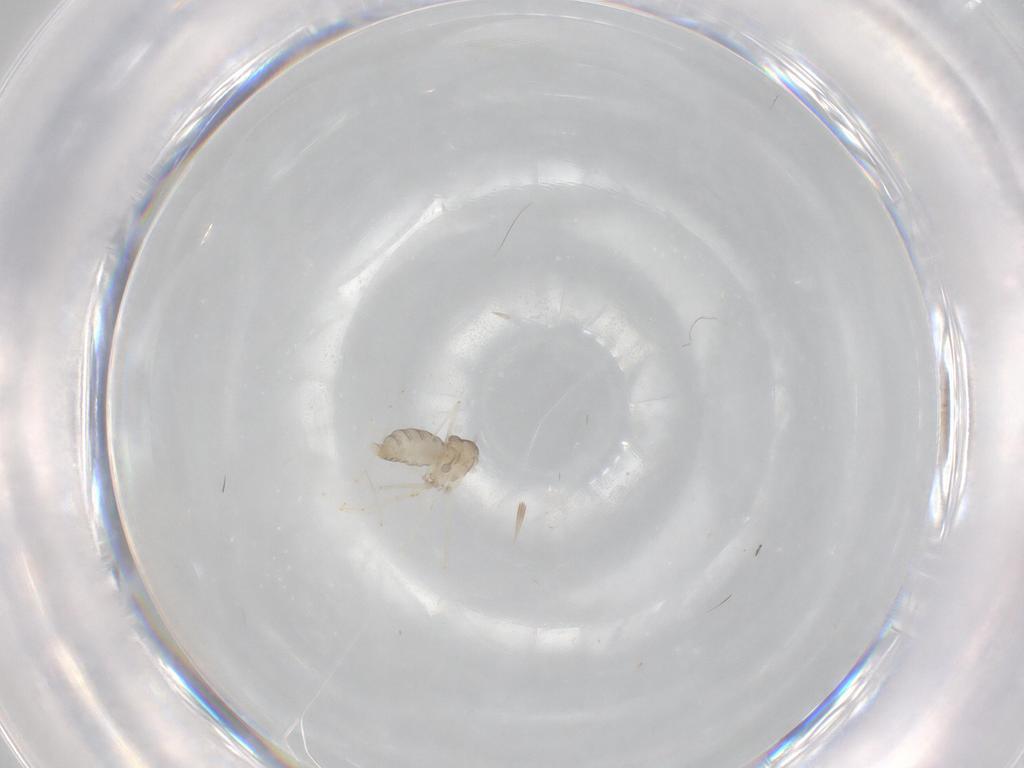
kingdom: Animalia
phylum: Arthropoda
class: Insecta
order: Diptera
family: Cecidomyiidae
